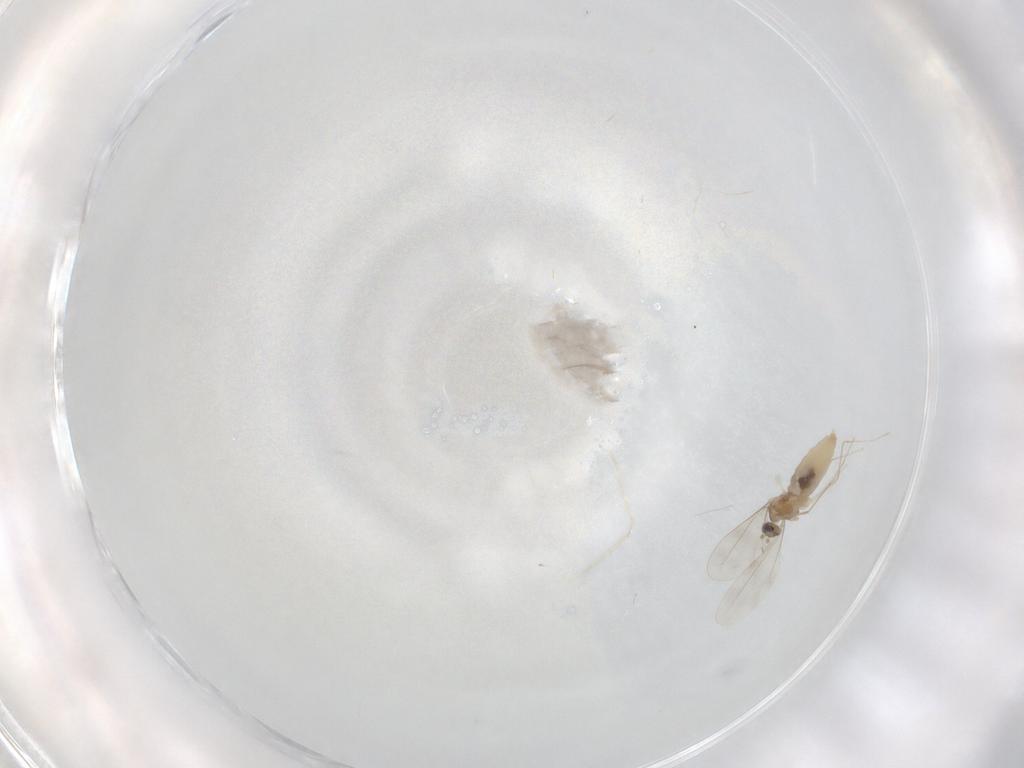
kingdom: Animalia
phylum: Arthropoda
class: Insecta
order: Diptera
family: Cecidomyiidae
